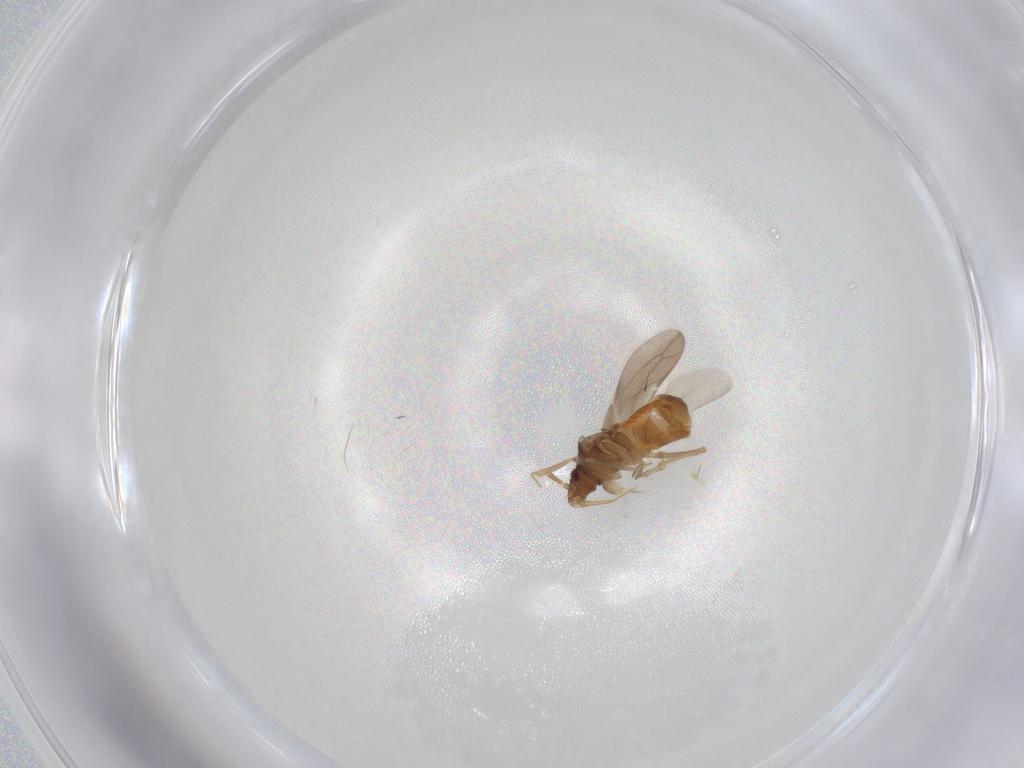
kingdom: Animalia
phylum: Arthropoda
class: Insecta
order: Hemiptera
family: Ceratocombidae
